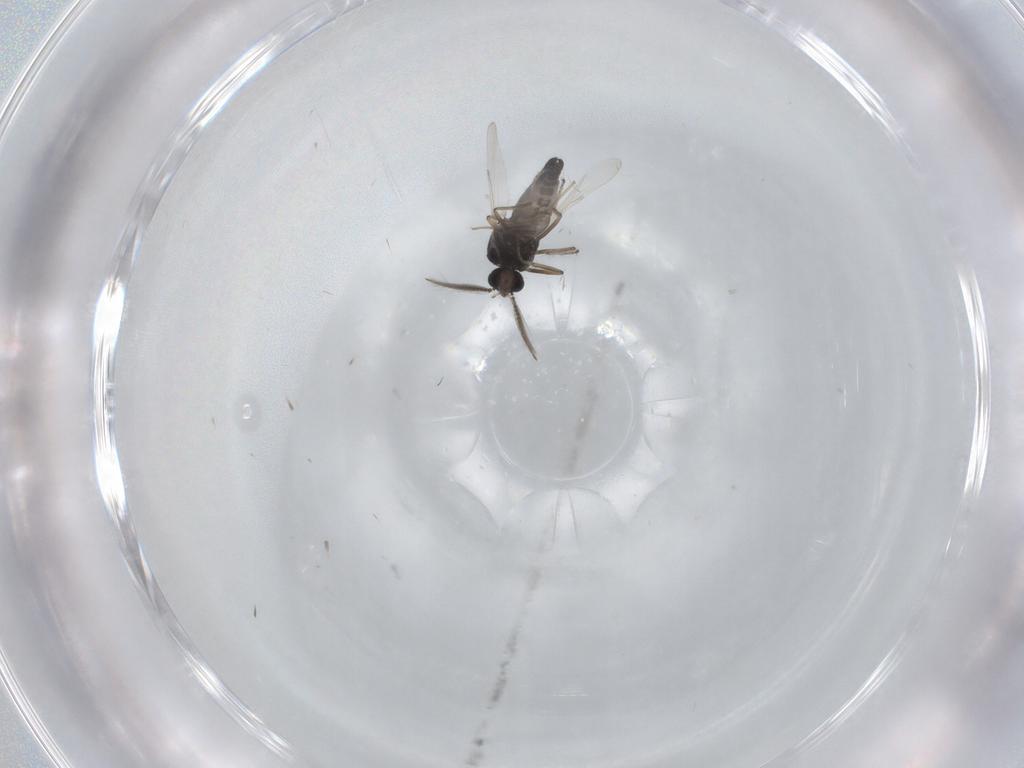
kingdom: Animalia
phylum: Arthropoda
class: Insecta
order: Diptera
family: Ceratopogonidae
